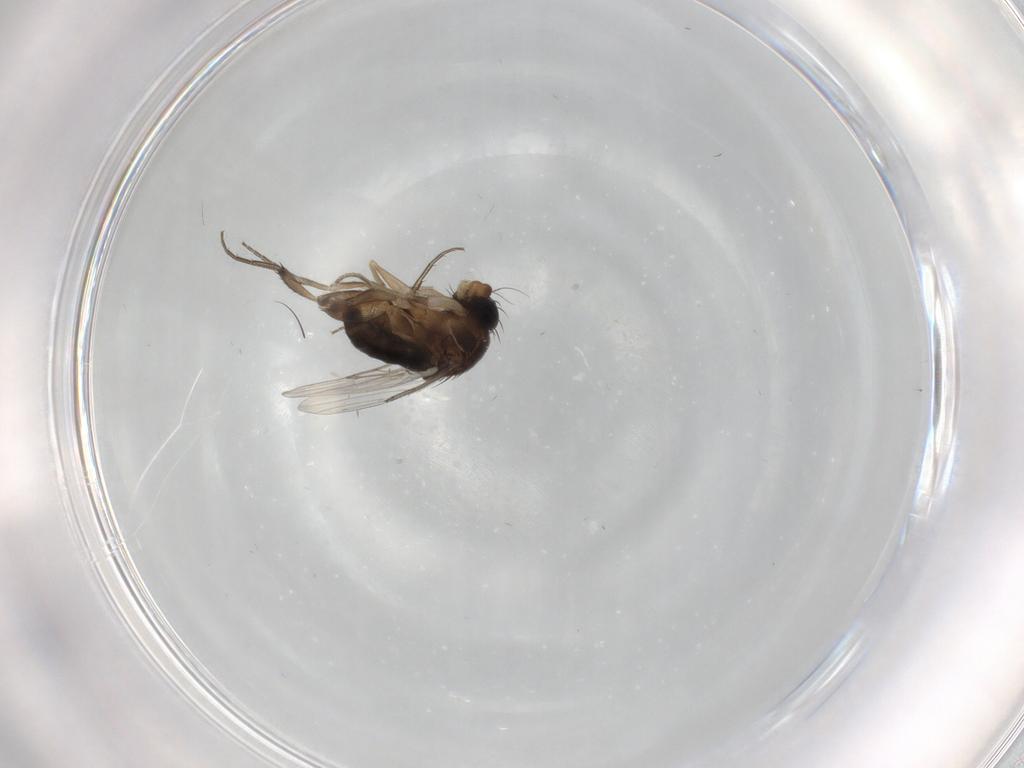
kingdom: Animalia
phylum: Arthropoda
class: Insecta
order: Diptera
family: Phoridae
